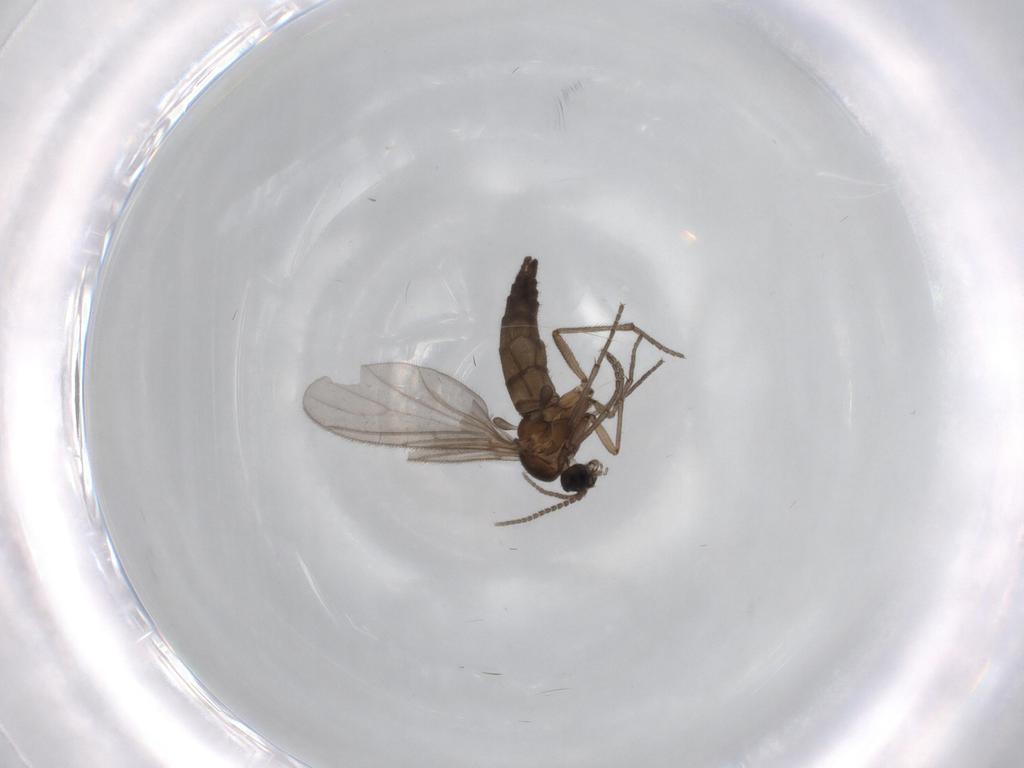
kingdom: Animalia
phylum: Arthropoda
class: Insecta
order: Diptera
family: Sciaridae
